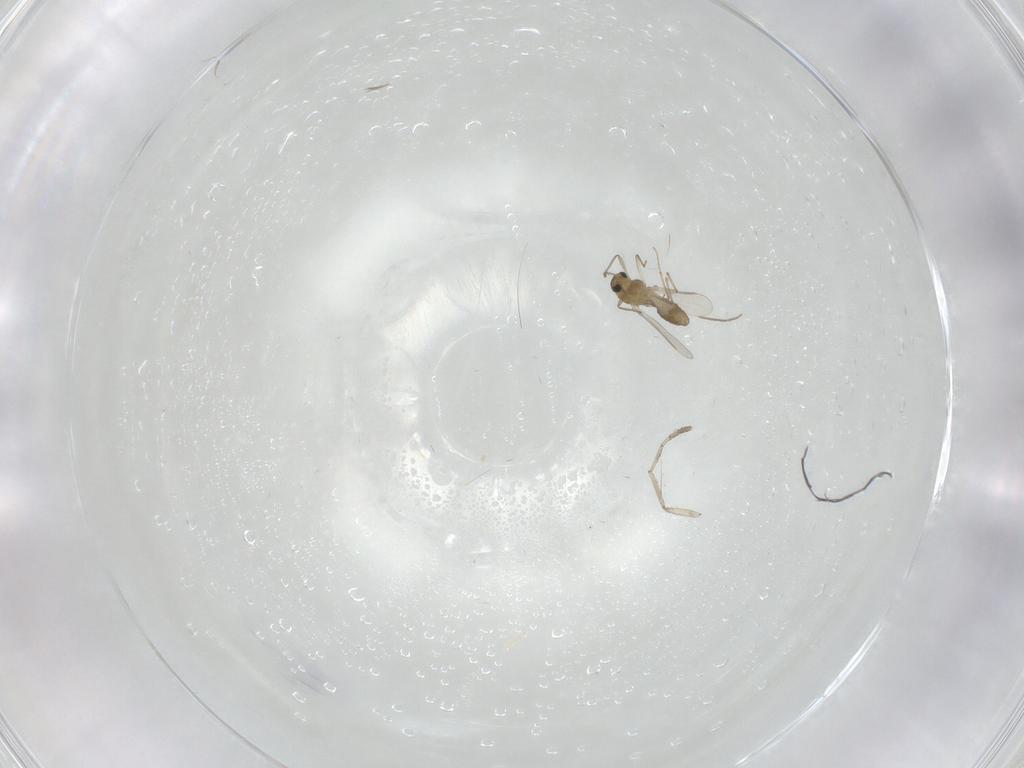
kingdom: Animalia
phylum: Arthropoda
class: Insecta
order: Diptera
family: Chironomidae
